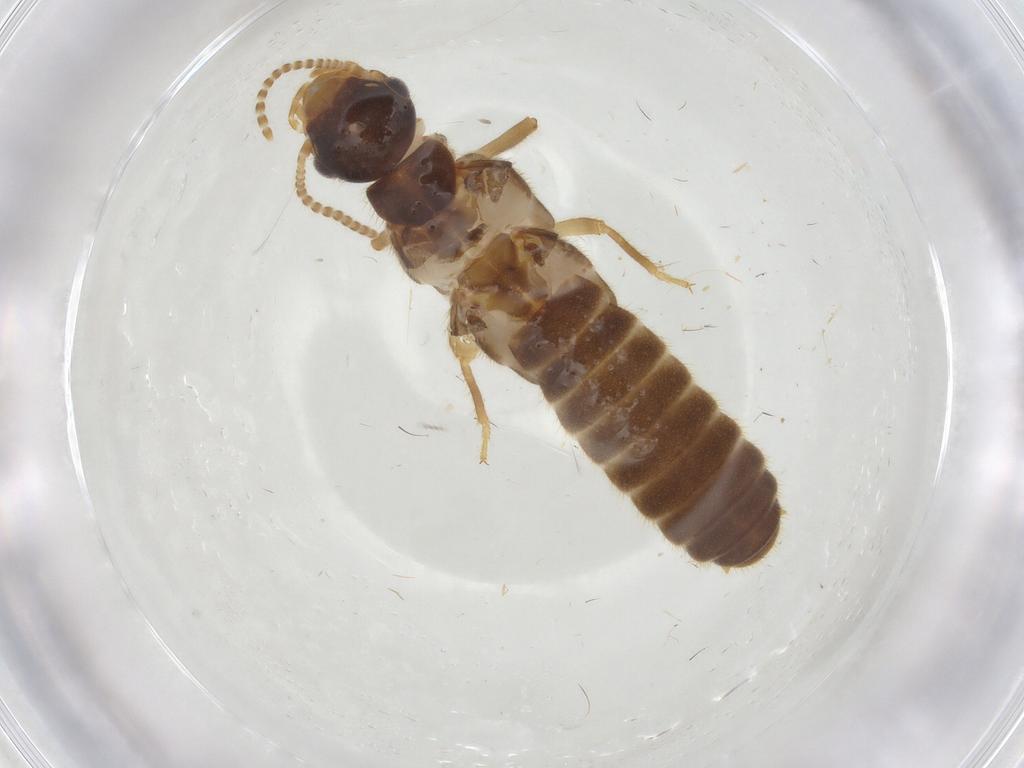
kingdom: Animalia
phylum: Arthropoda
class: Insecta
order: Blattodea
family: Ectobiidae
